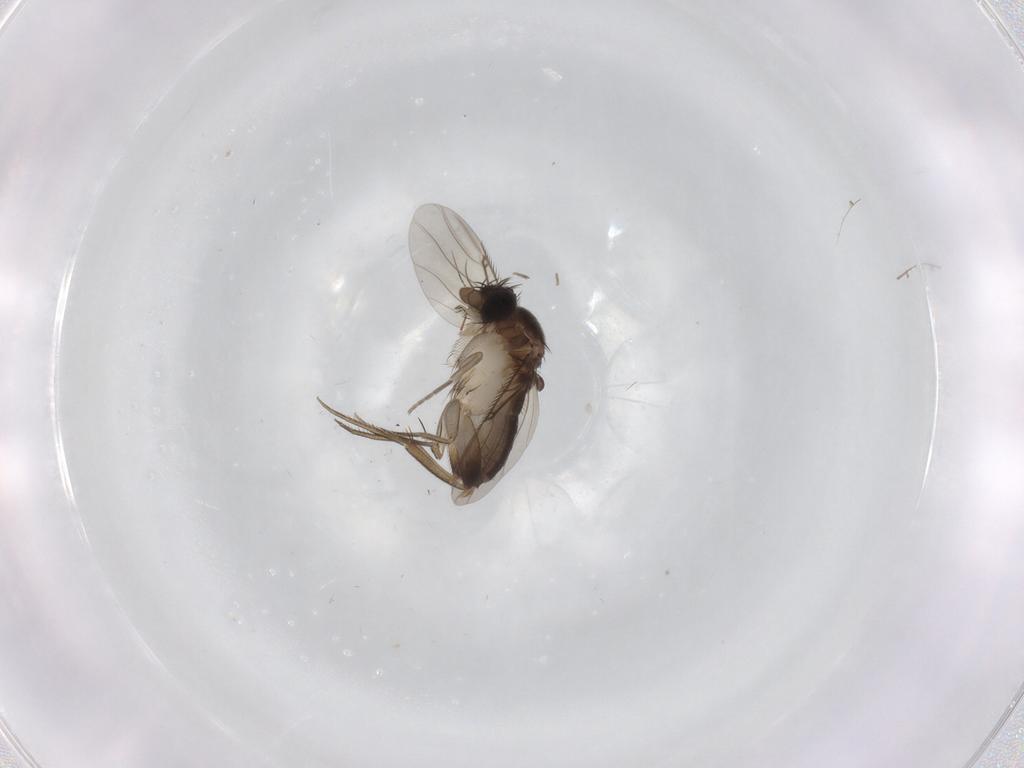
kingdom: Animalia
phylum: Arthropoda
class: Insecta
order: Diptera
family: Phoridae
